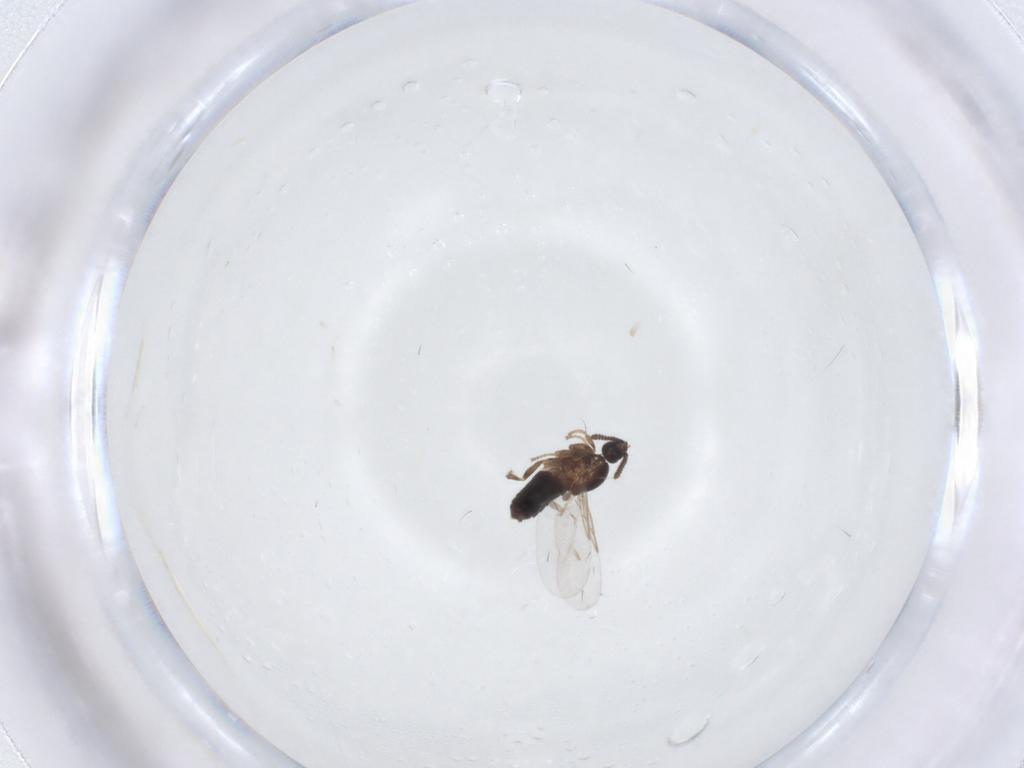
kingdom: Animalia
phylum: Arthropoda
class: Insecta
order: Diptera
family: Scatopsidae
